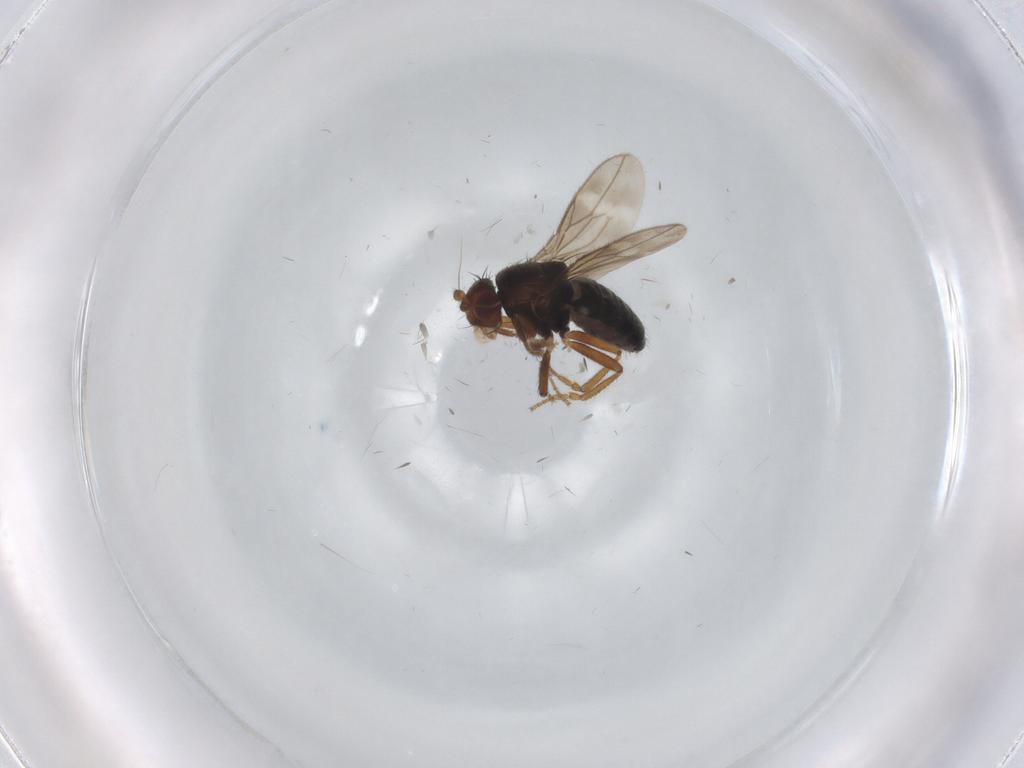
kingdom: Animalia
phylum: Arthropoda
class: Insecta
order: Diptera
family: Sphaeroceridae
